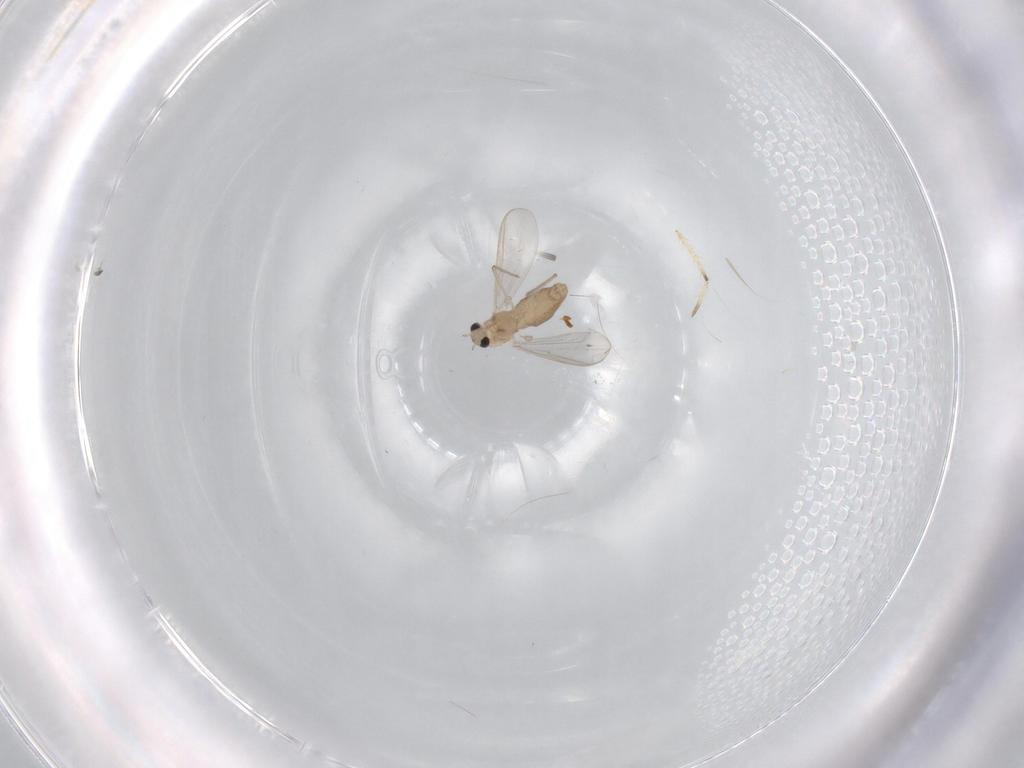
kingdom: Animalia
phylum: Arthropoda
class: Insecta
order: Diptera
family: Chironomidae
